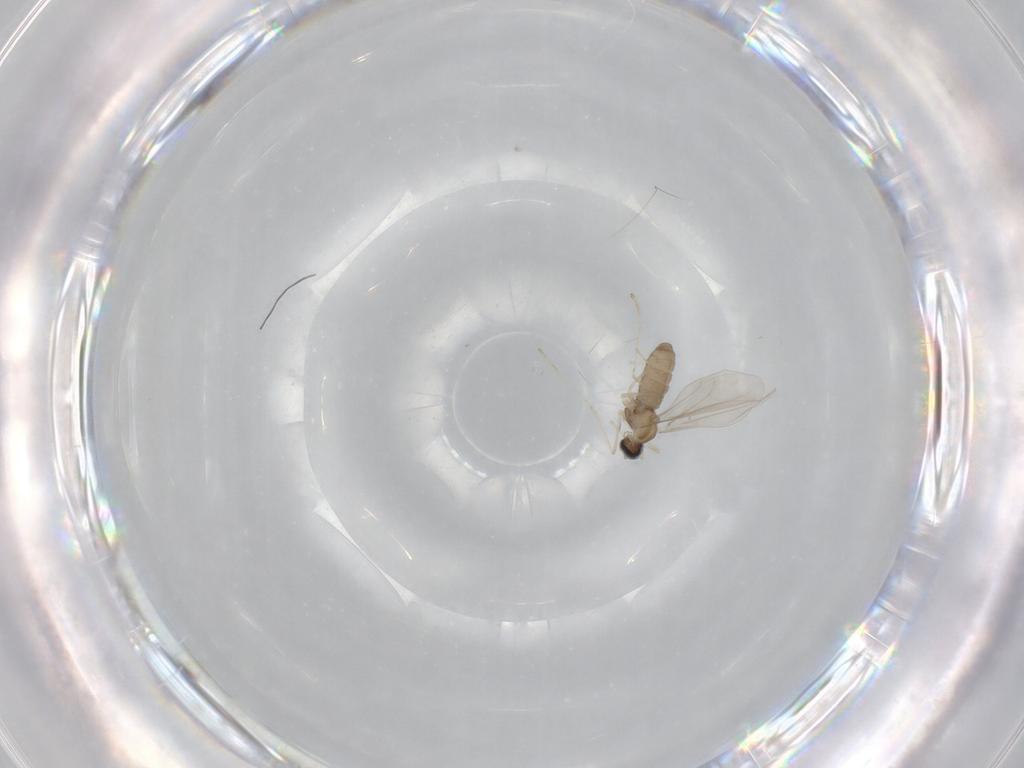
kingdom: Animalia
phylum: Arthropoda
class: Insecta
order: Diptera
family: Cecidomyiidae
